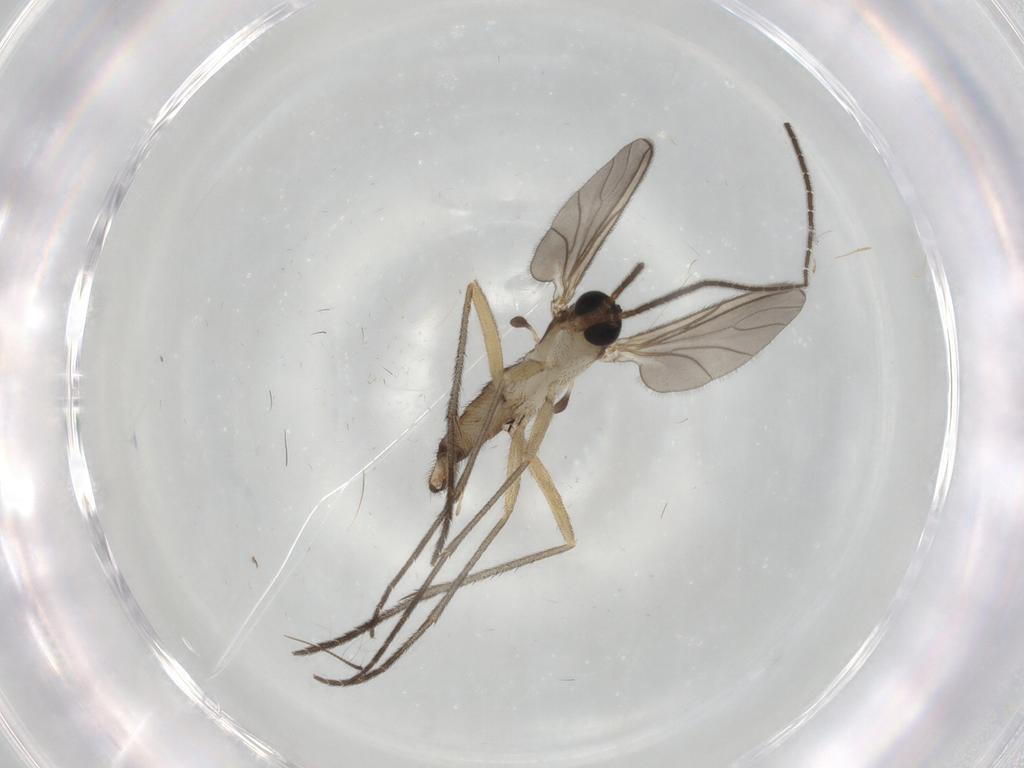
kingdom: Animalia
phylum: Arthropoda
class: Insecta
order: Diptera
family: Sciaridae
